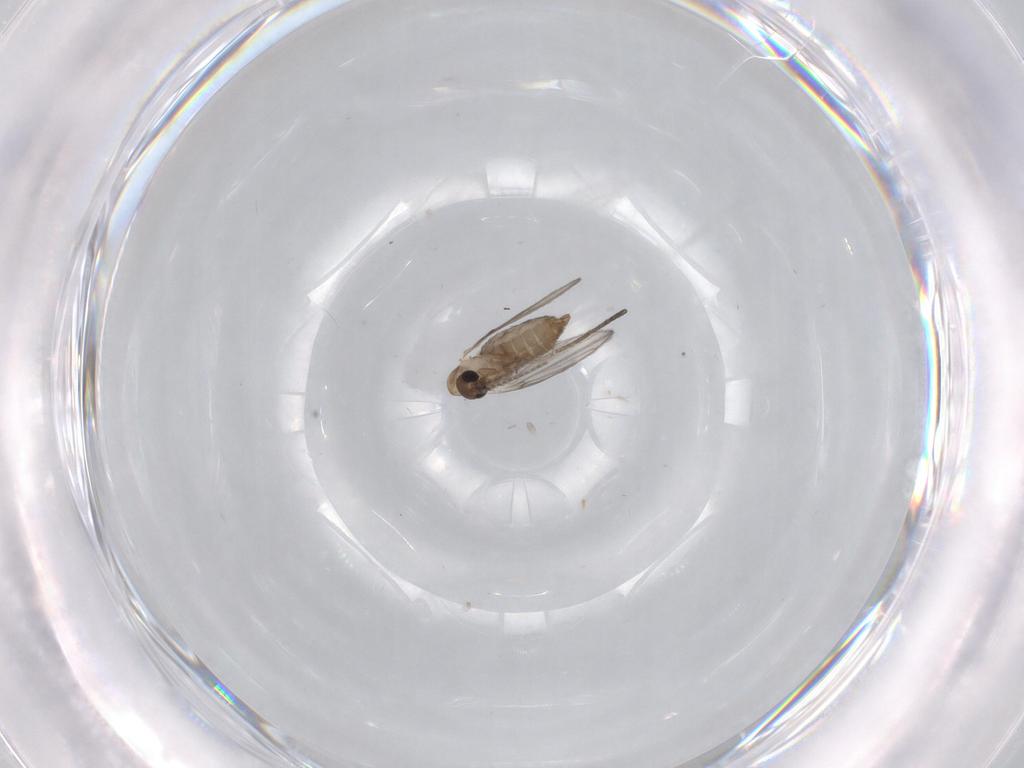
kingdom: Animalia
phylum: Arthropoda
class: Insecta
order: Diptera
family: Psychodidae
